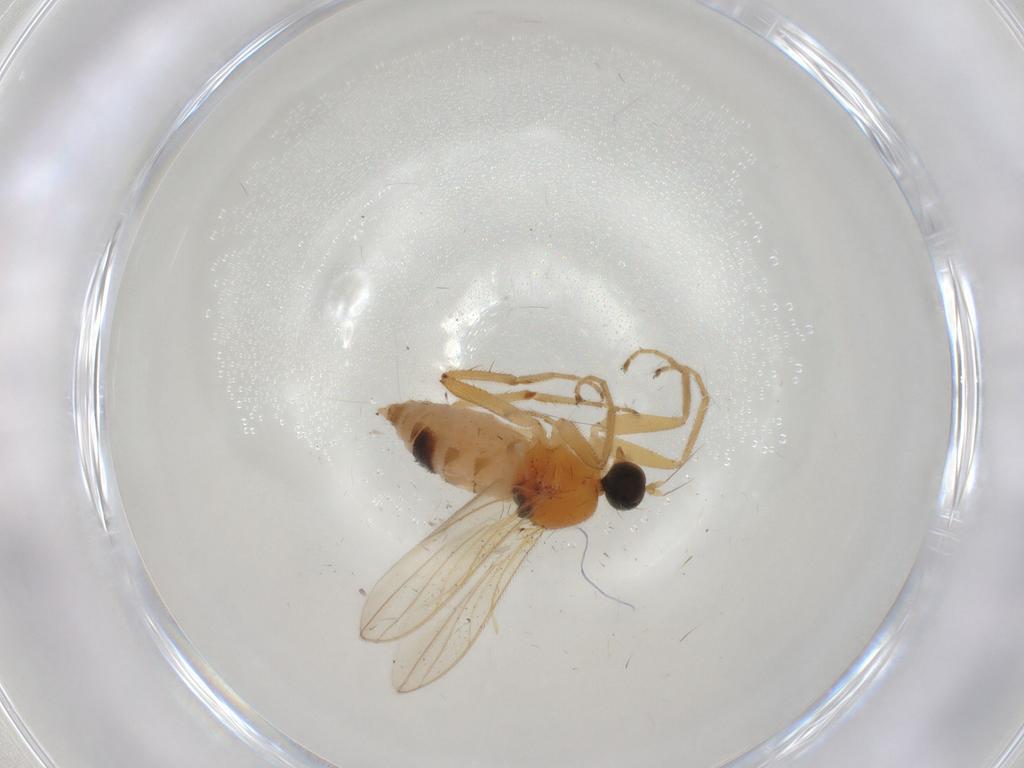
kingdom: Animalia
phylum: Arthropoda
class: Insecta
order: Diptera
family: Hybotidae
